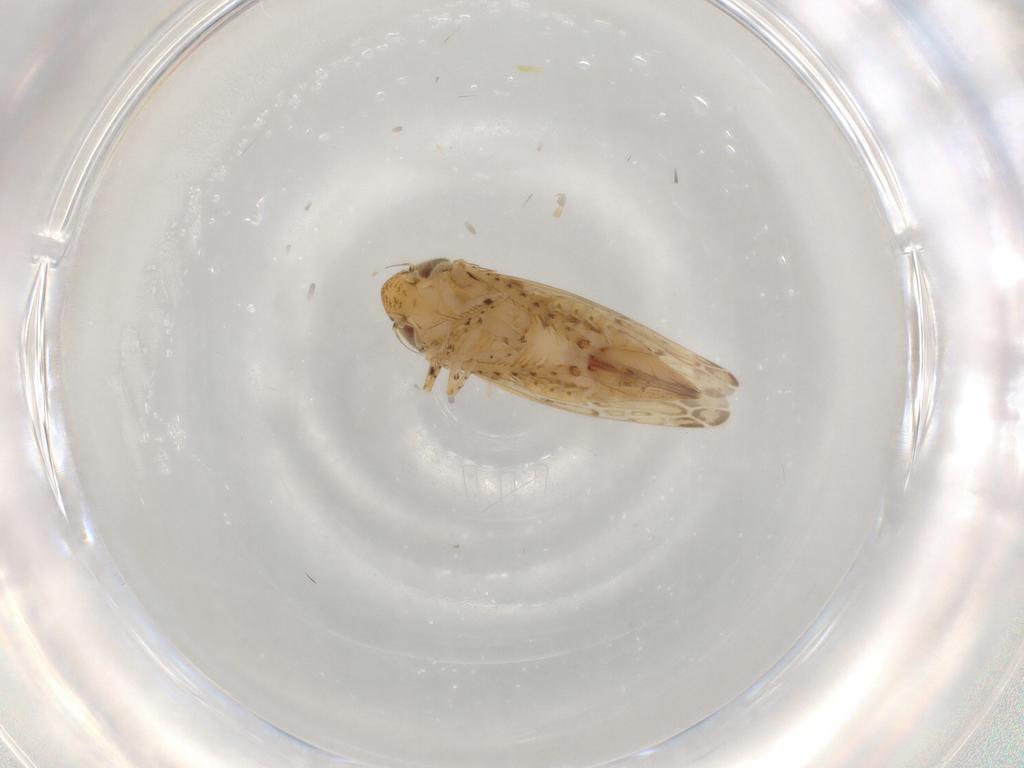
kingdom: Animalia
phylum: Arthropoda
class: Insecta
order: Hemiptera
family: Cicadellidae
